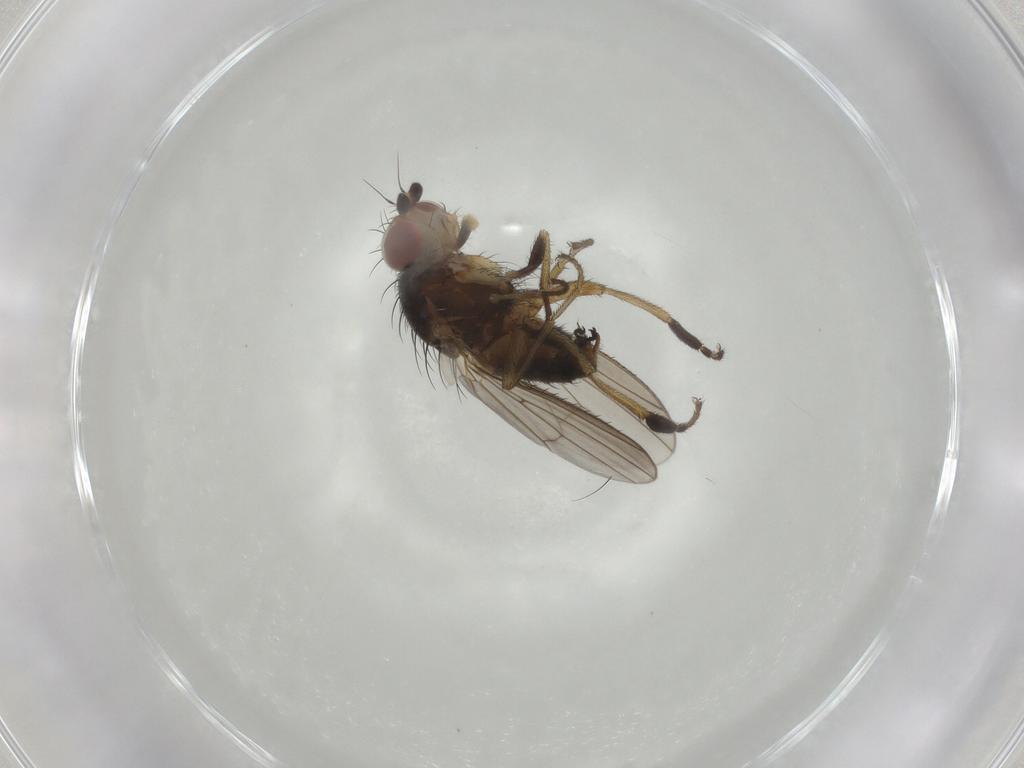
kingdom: Animalia
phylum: Arthropoda
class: Insecta
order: Diptera
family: Heleomyzidae
